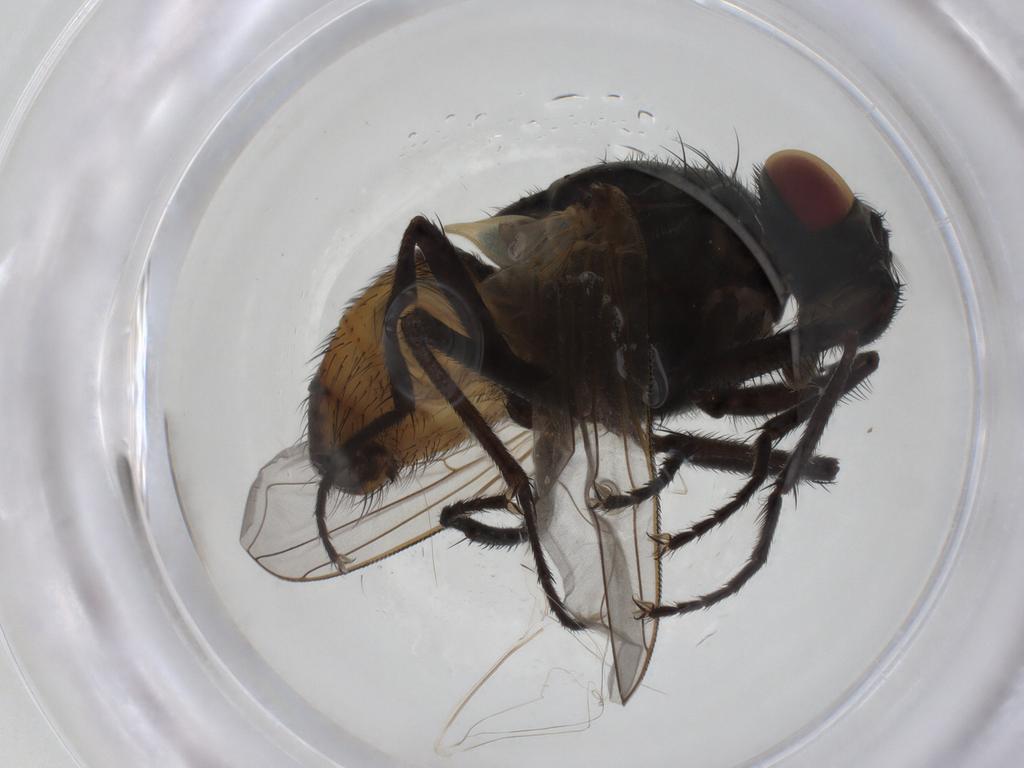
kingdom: Animalia
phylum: Arthropoda
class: Insecta
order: Diptera
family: Muscidae
